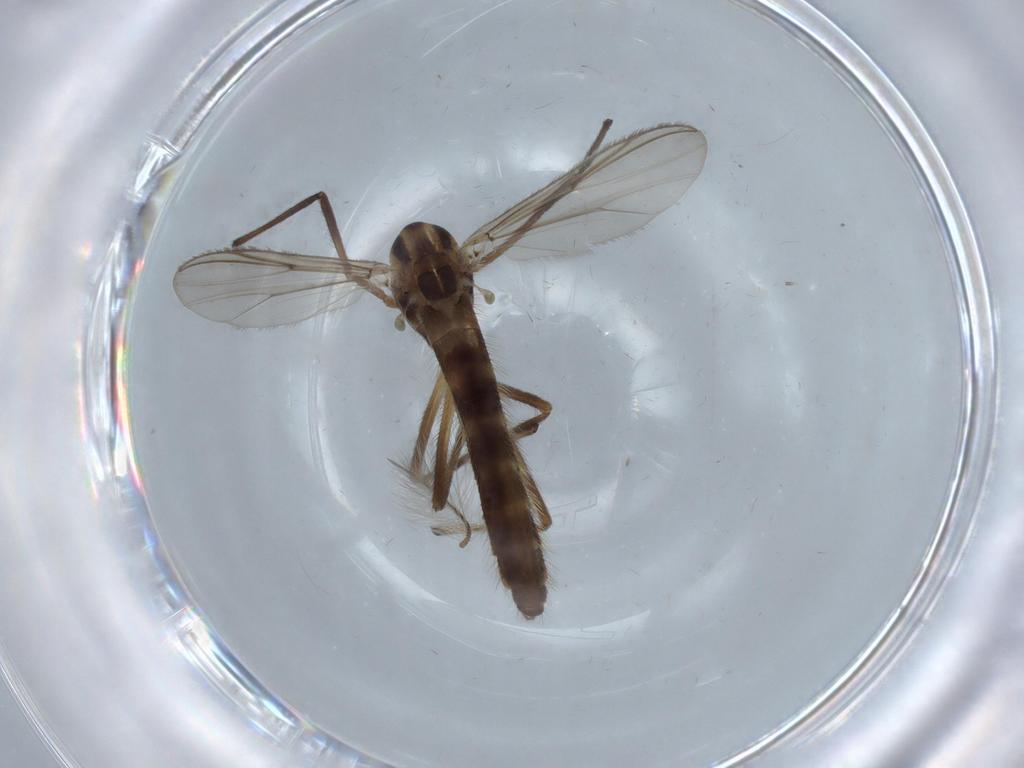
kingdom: Animalia
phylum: Arthropoda
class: Insecta
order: Diptera
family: Chironomidae
